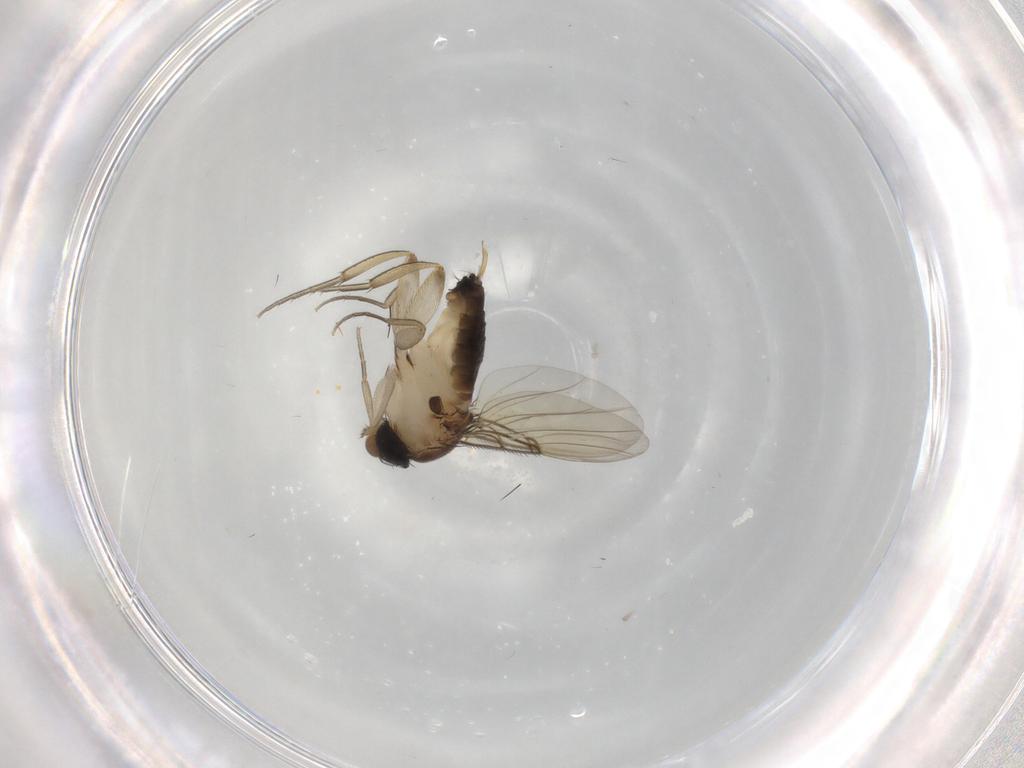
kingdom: Animalia
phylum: Arthropoda
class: Insecta
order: Diptera
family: Phoridae
